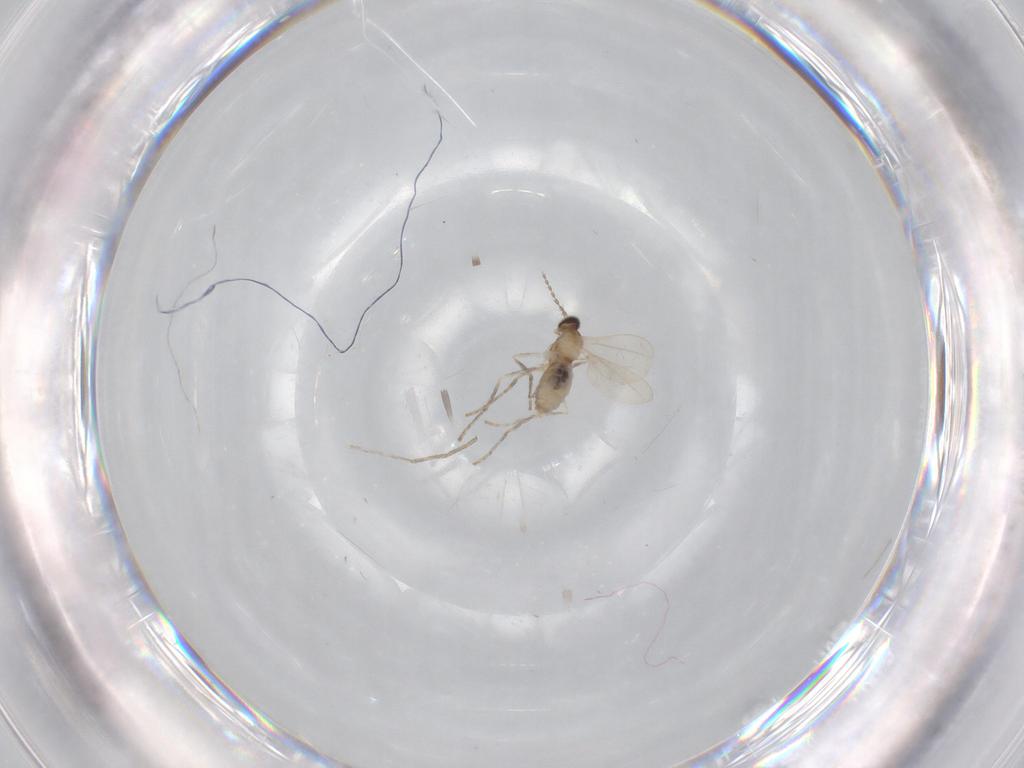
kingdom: Animalia
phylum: Arthropoda
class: Insecta
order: Diptera
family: Cecidomyiidae
